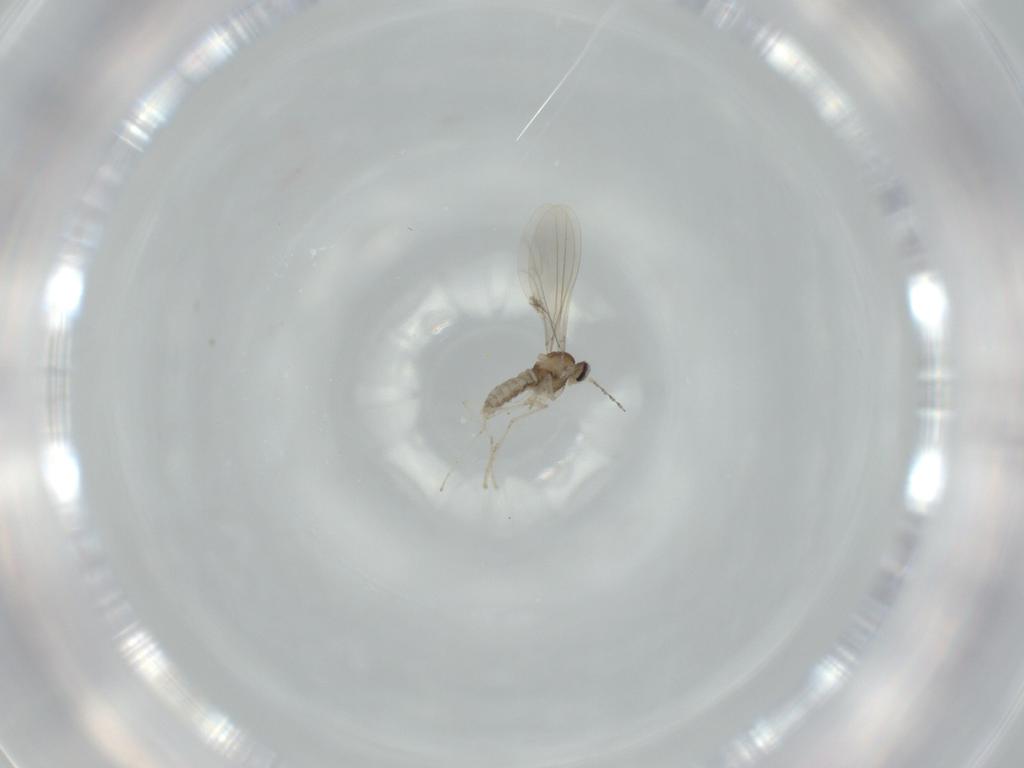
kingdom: Animalia
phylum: Arthropoda
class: Insecta
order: Diptera
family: Cecidomyiidae
